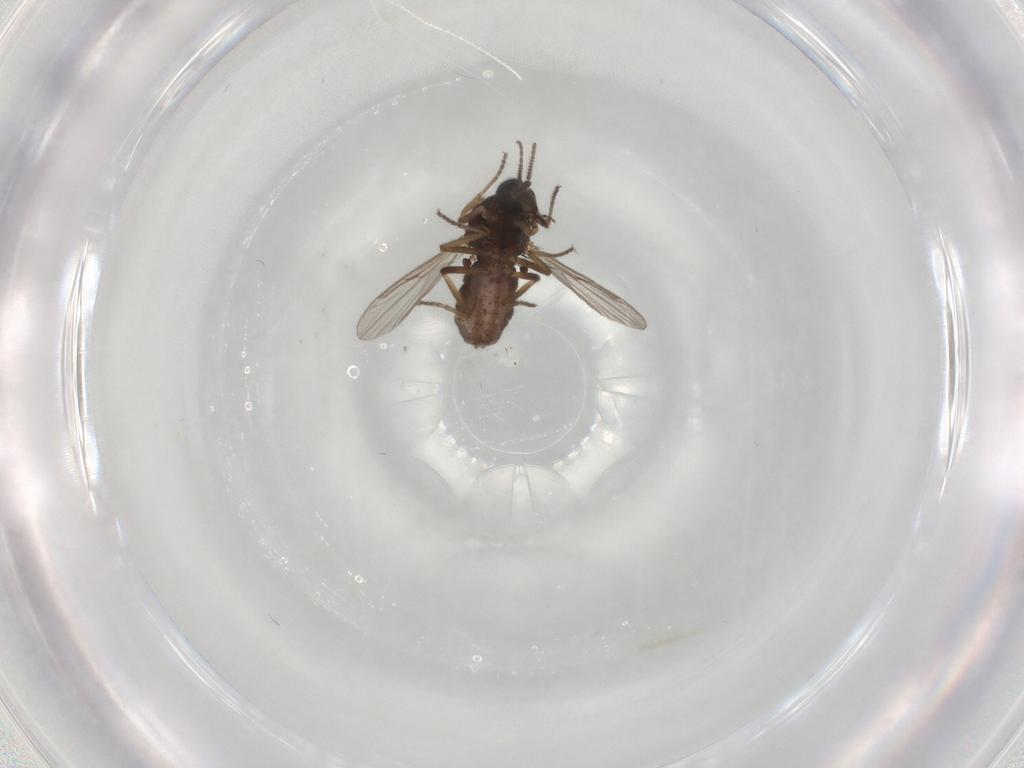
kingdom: Animalia
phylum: Arthropoda
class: Insecta
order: Diptera
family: Ceratopogonidae
